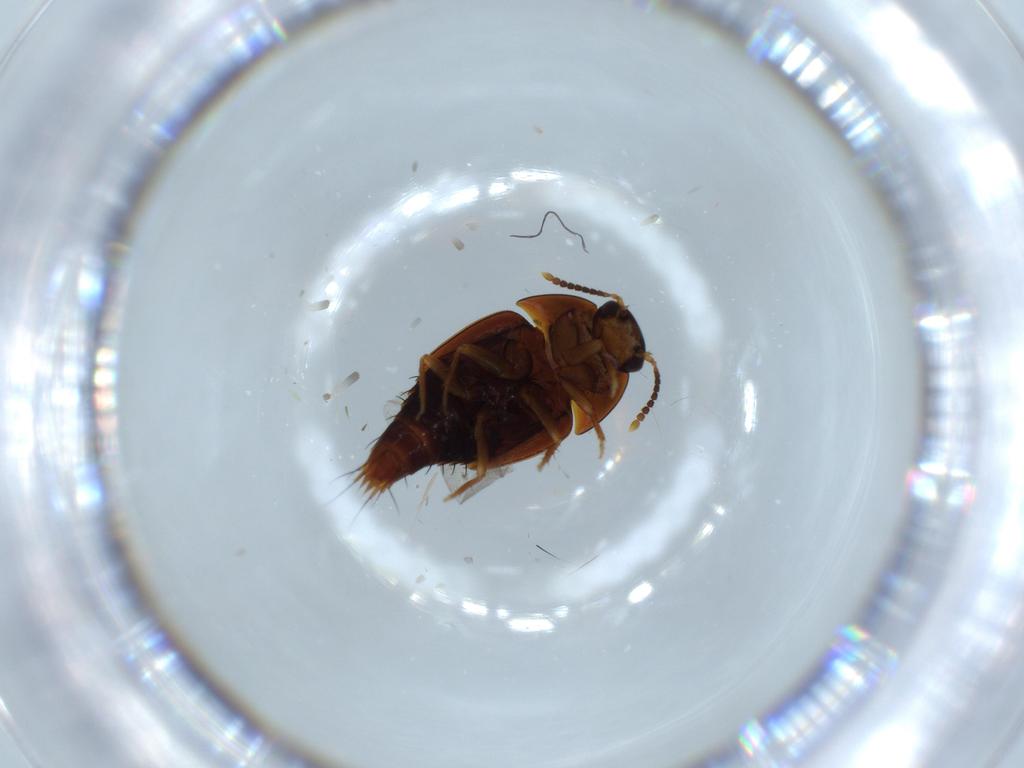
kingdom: Animalia
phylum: Arthropoda
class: Insecta
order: Coleoptera
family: Staphylinidae
